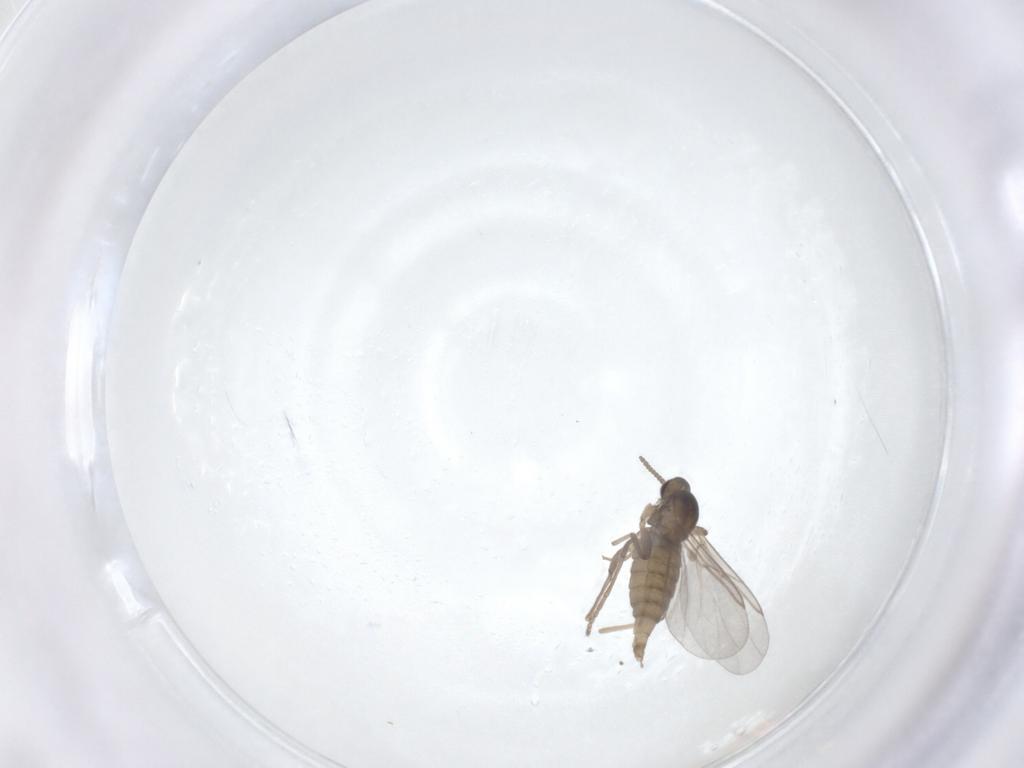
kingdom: Animalia
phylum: Arthropoda
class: Insecta
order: Diptera
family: Cecidomyiidae
